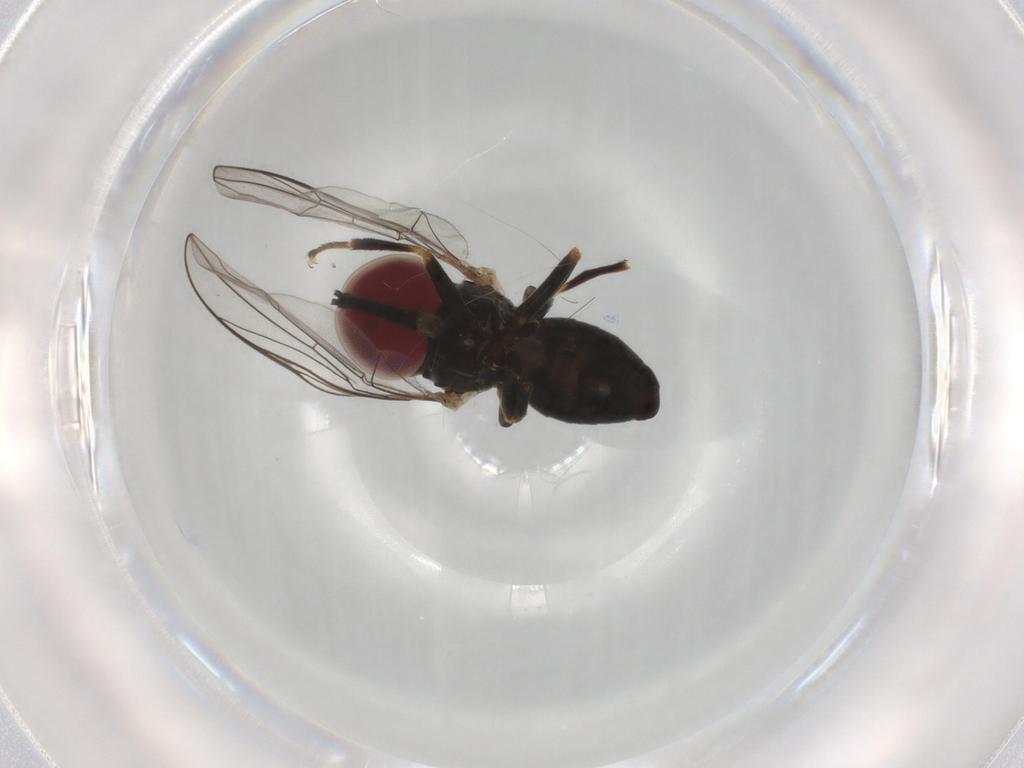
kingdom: Animalia
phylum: Arthropoda
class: Insecta
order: Diptera
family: Pipunculidae
